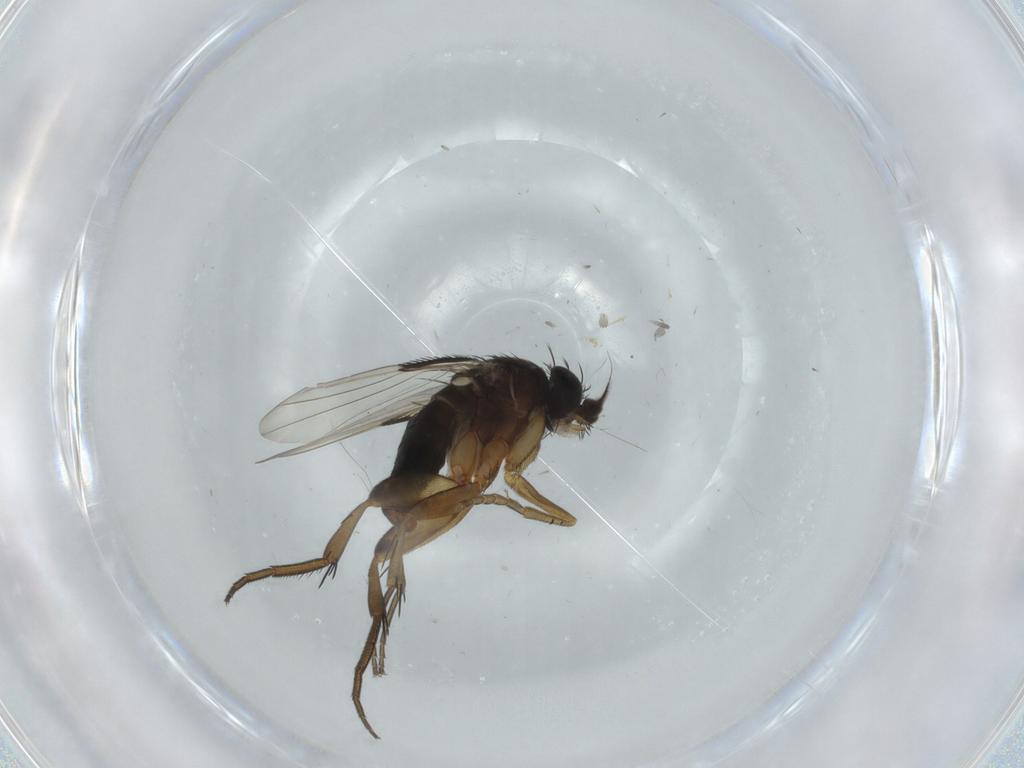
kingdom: Animalia
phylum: Arthropoda
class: Insecta
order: Diptera
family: Phoridae
